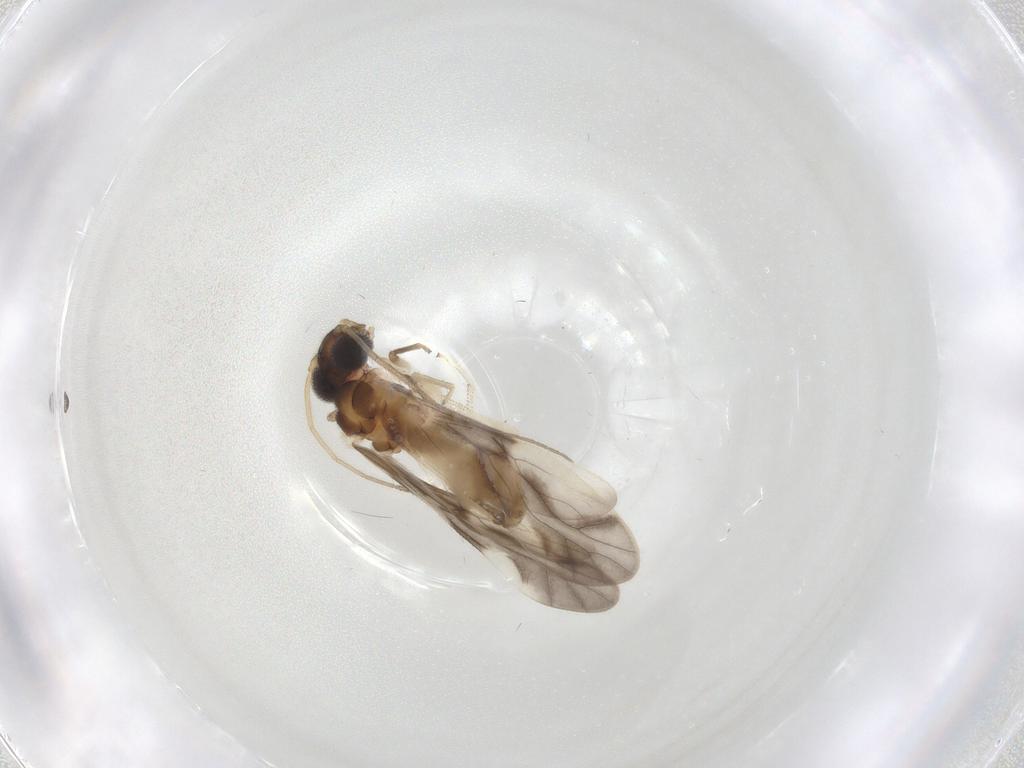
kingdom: Animalia
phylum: Arthropoda
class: Insecta
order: Psocodea
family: Caeciliusidae
